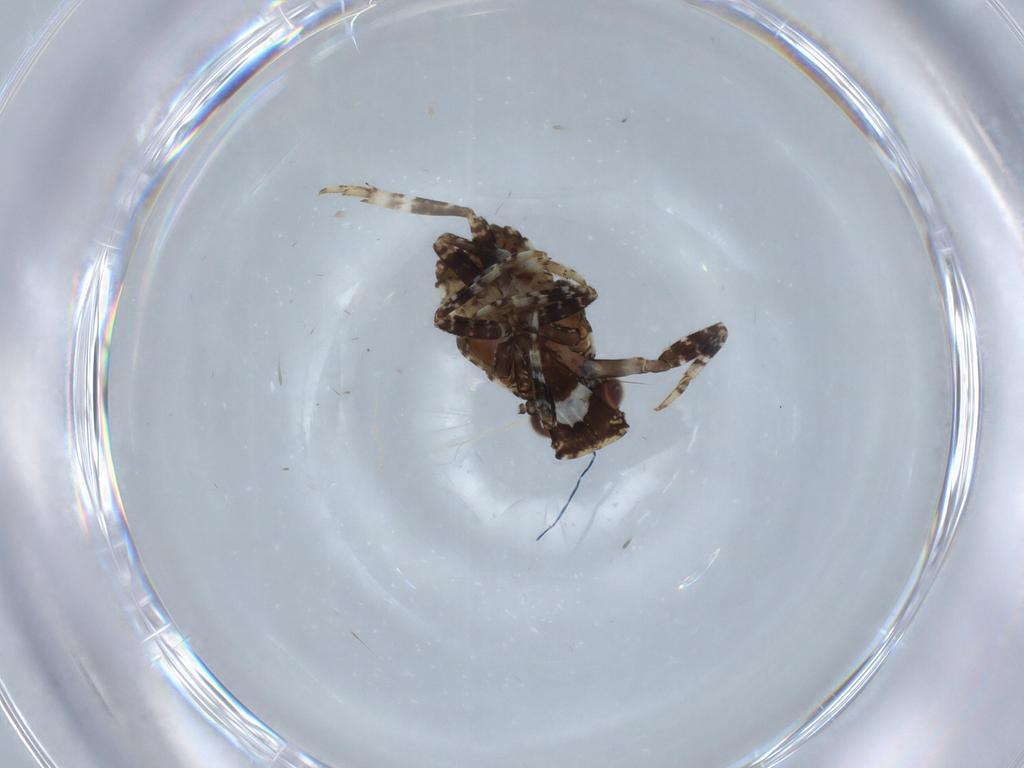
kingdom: Animalia
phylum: Arthropoda
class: Insecta
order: Hemiptera
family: Fulgoridae
